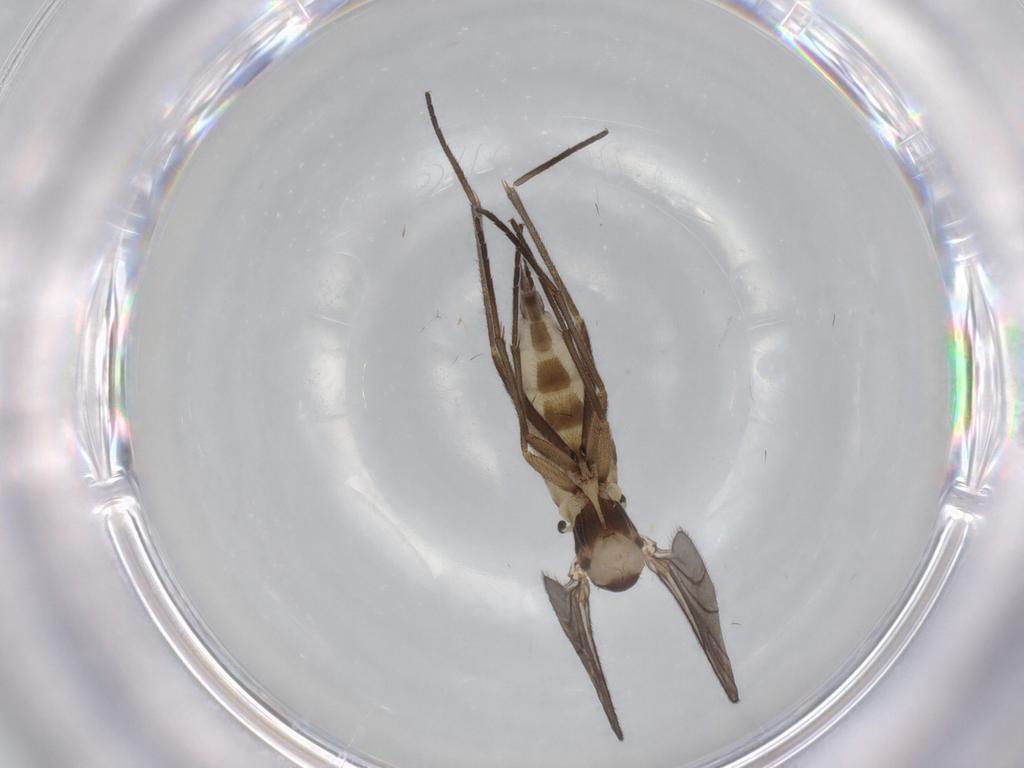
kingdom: Animalia
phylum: Arthropoda
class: Insecta
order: Diptera
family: Sciaridae
